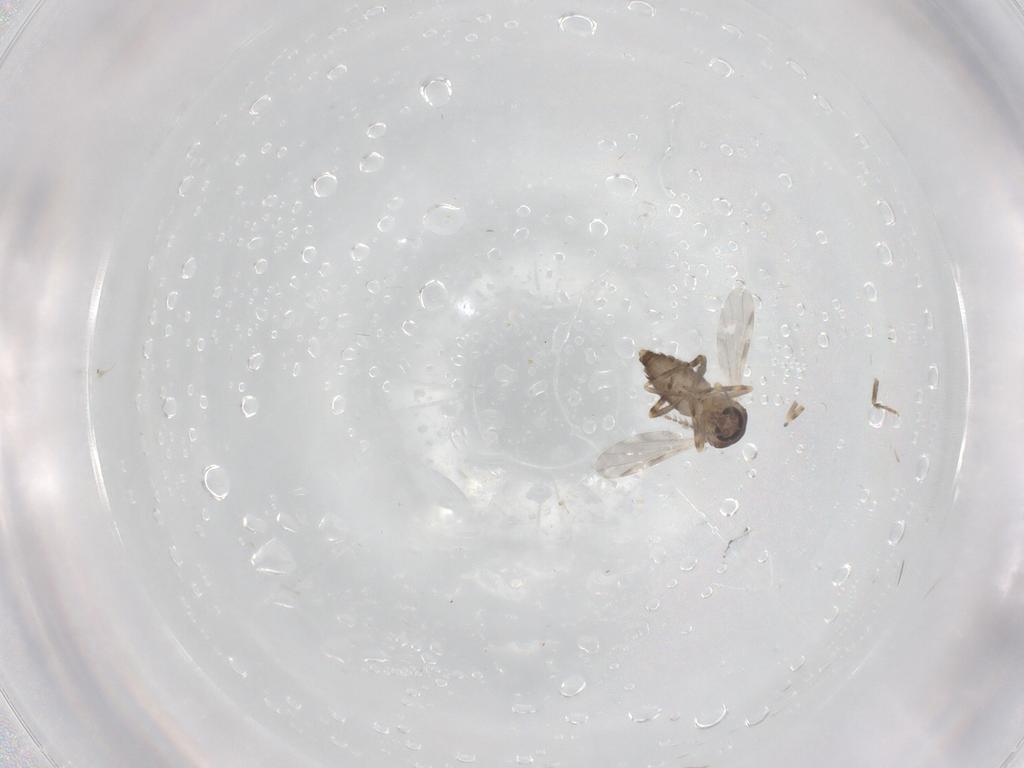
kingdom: Animalia
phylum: Arthropoda
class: Insecta
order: Diptera
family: Ceratopogonidae
